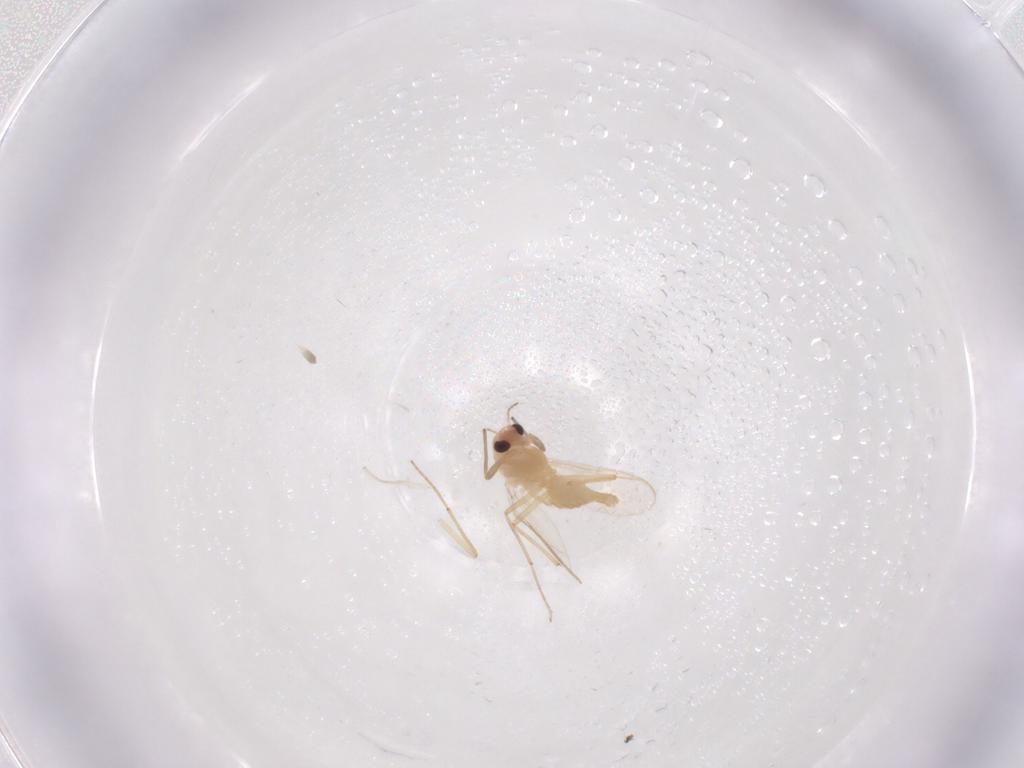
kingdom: Animalia
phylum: Arthropoda
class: Insecta
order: Diptera
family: Chironomidae
